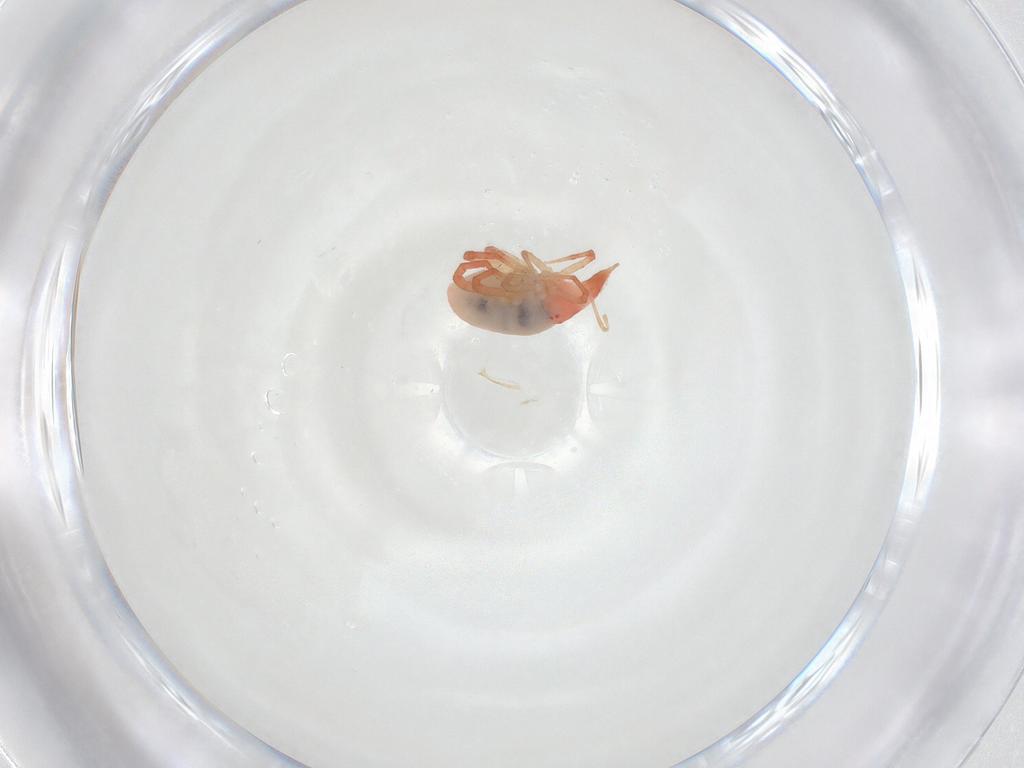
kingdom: Animalia
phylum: Arthropoda
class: Arachnida
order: Trombidiformes
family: Bdellidae
